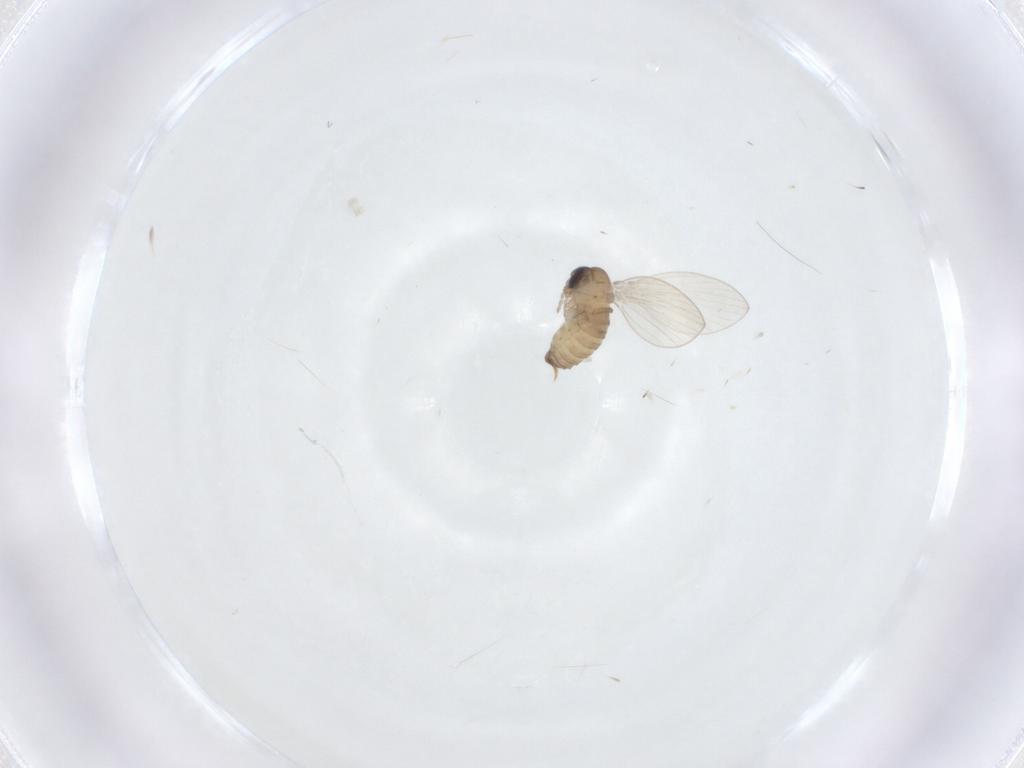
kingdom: Animalia
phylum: Arthropoda
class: Insecta
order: Diptera
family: Psychodidae
